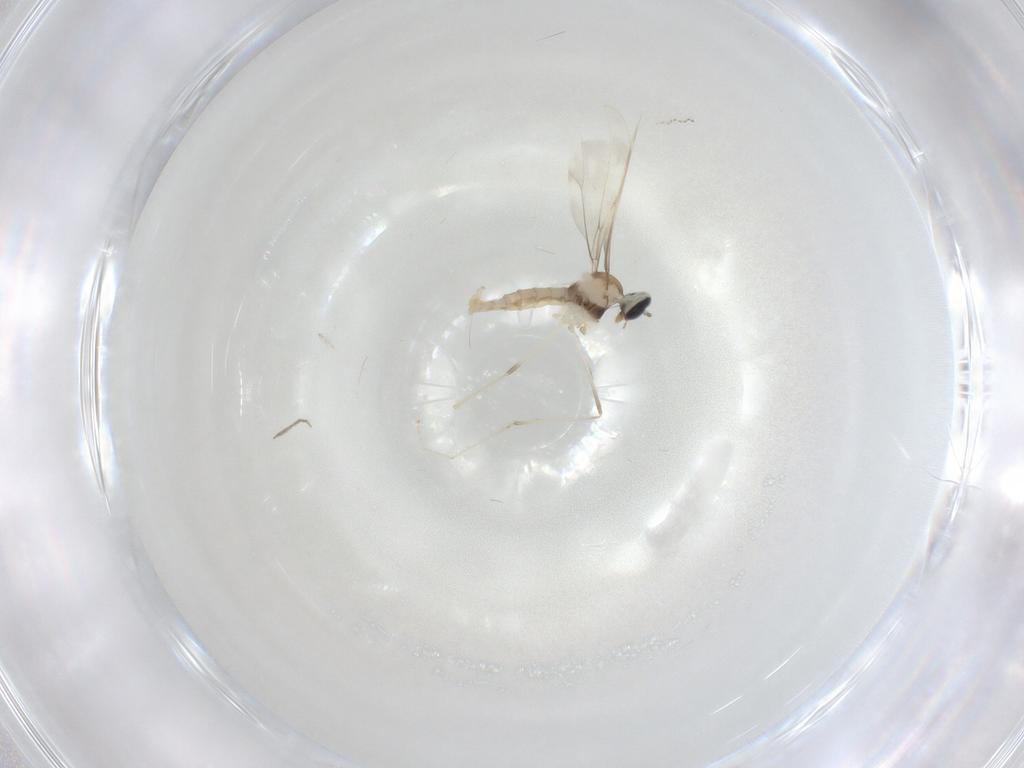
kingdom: Animalia
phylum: Arthropoda
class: Insecta
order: Diptera
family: Cecidomyiidae
